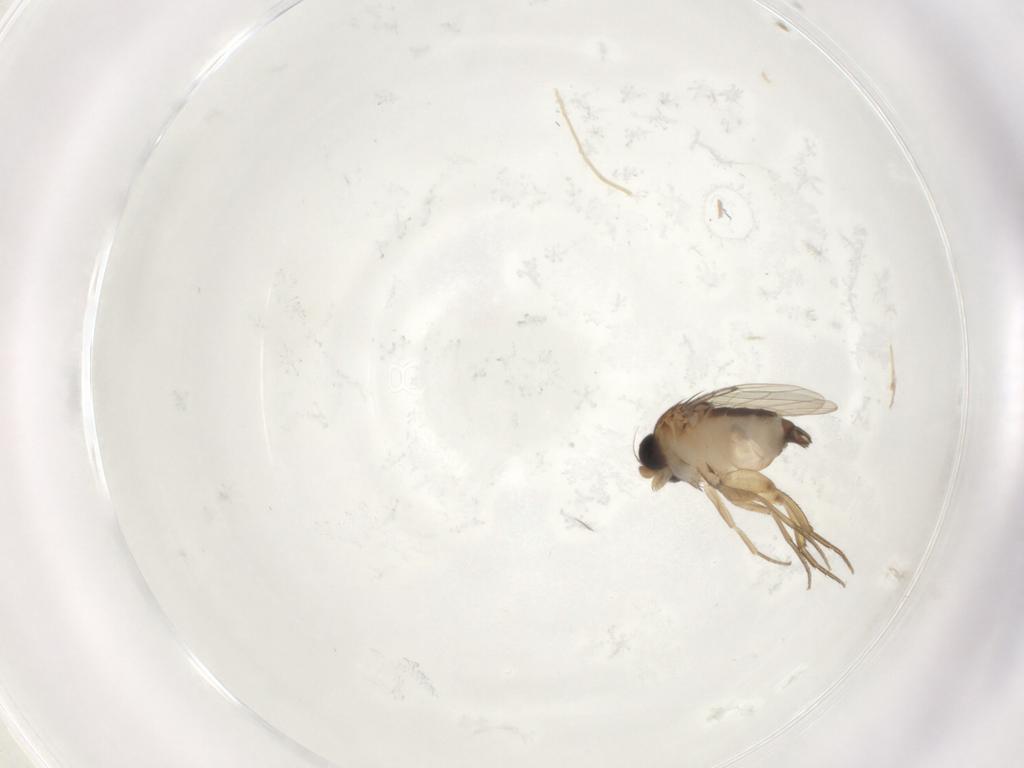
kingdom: Animalia
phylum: Arthropoda
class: Insecta
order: Diptera
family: Phoridae
